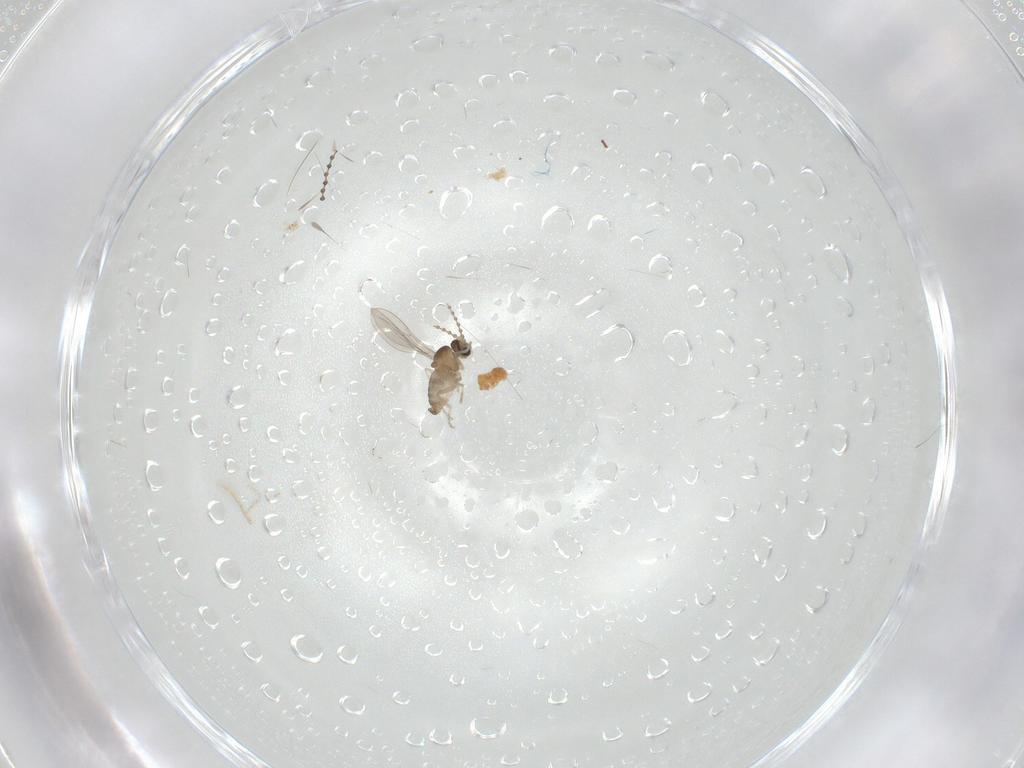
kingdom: Animalia
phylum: Arthropoda
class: Insecta
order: Diptera
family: Cecidomyiidae
